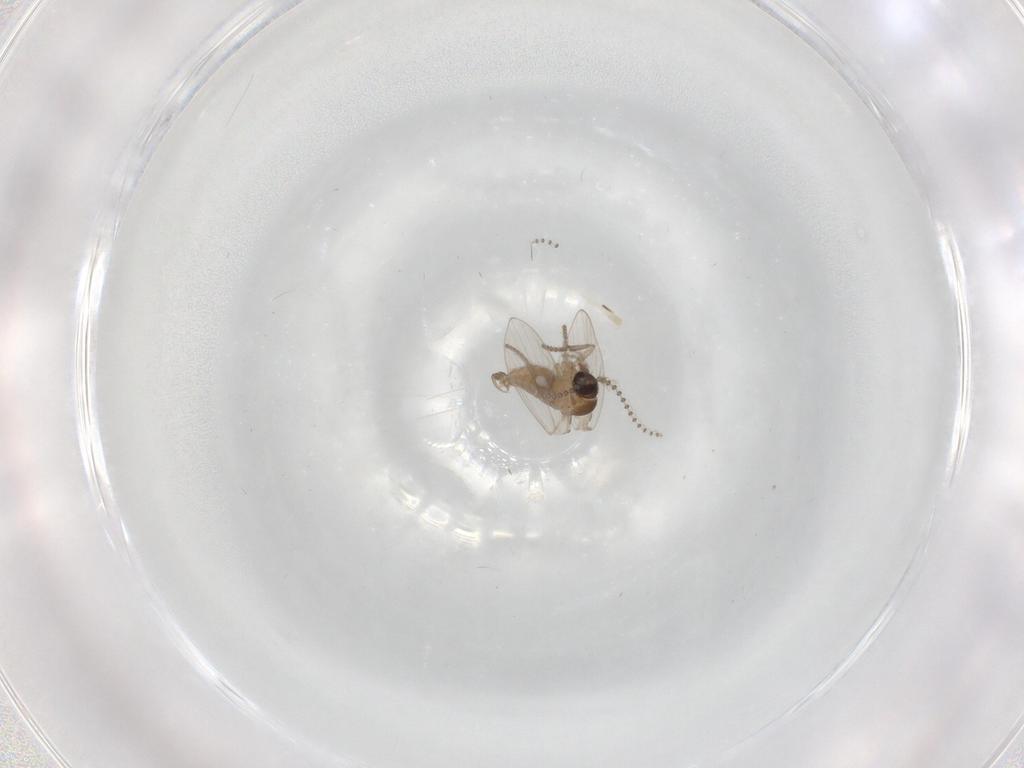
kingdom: Animalia
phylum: Arthropoda
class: Insecta
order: Diptera
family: Psychodidae
